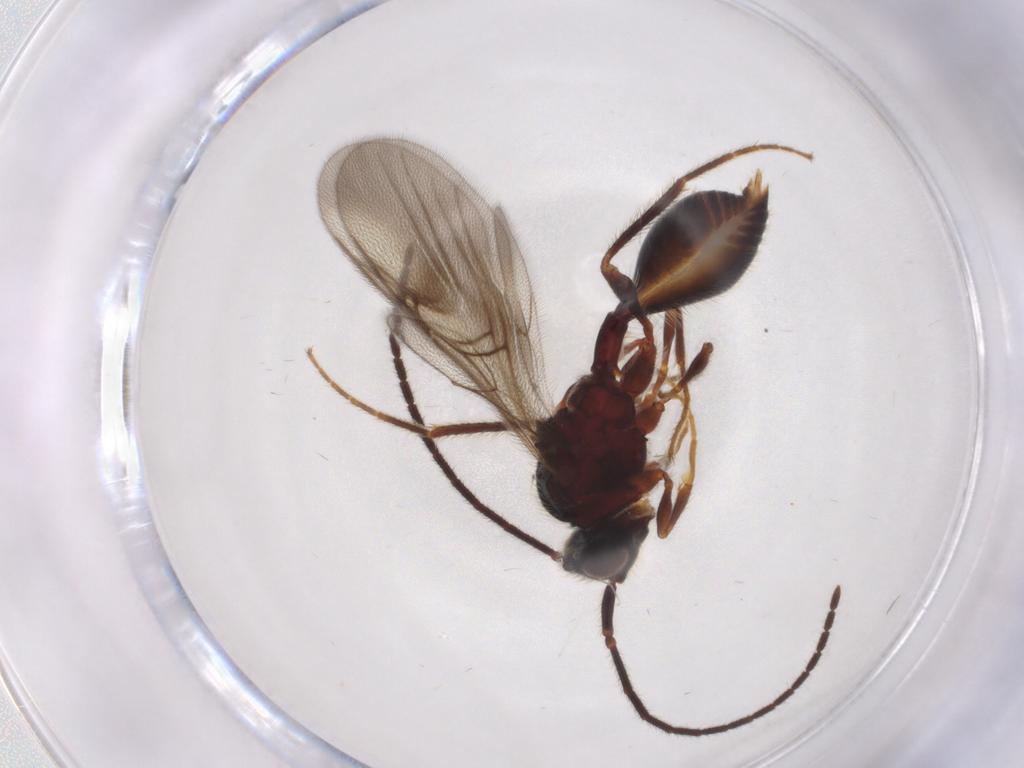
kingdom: Animalia
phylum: Arthropoda
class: Insecta
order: Hymenoptera
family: Diapriidae
